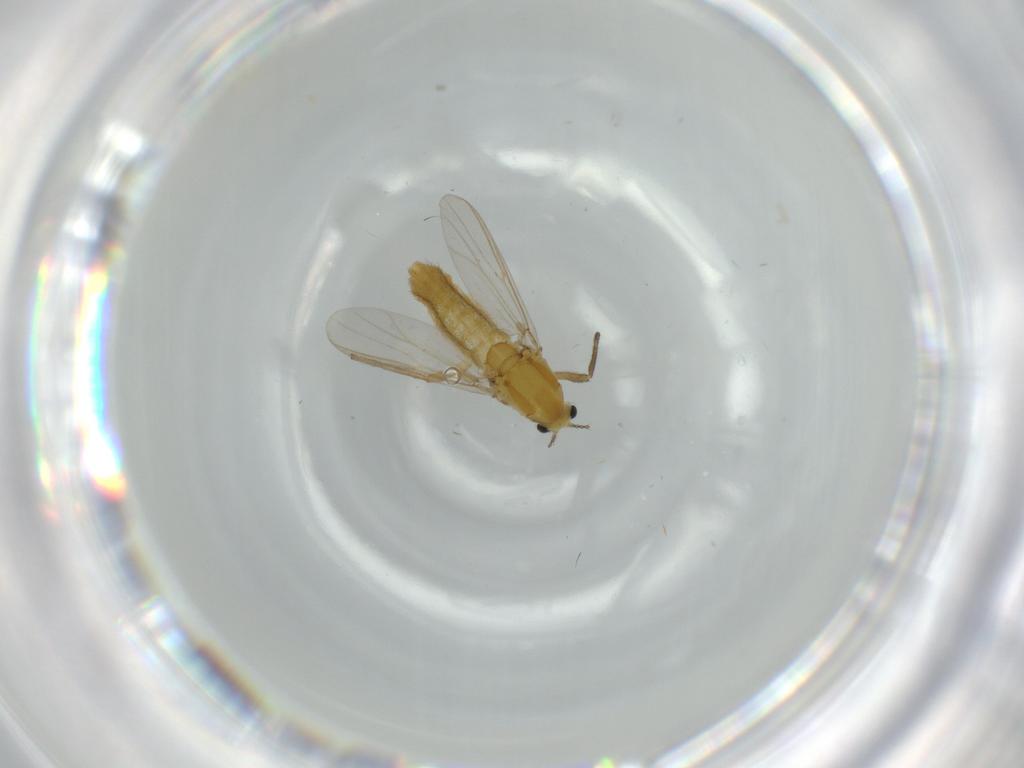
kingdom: Animalia
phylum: Arthropoda
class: Insecta
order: Diptera
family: Chironomidae
